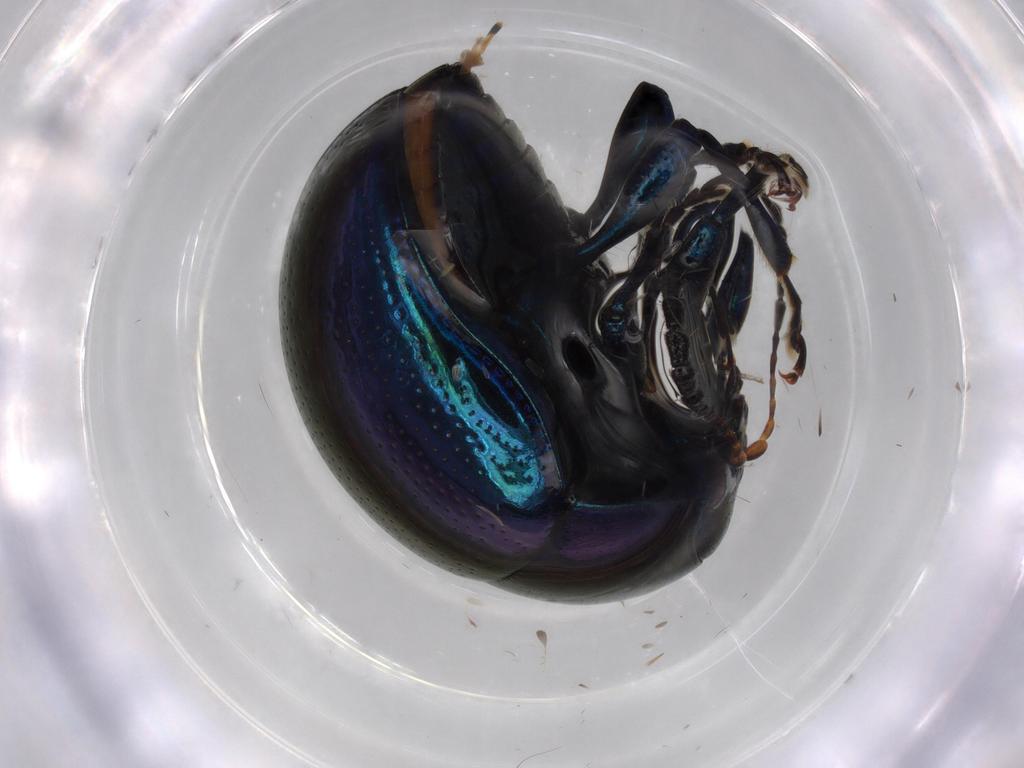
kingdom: Animalia
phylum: Arthropoda
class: Insecta
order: Coleoptera
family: Chrysomelidae
